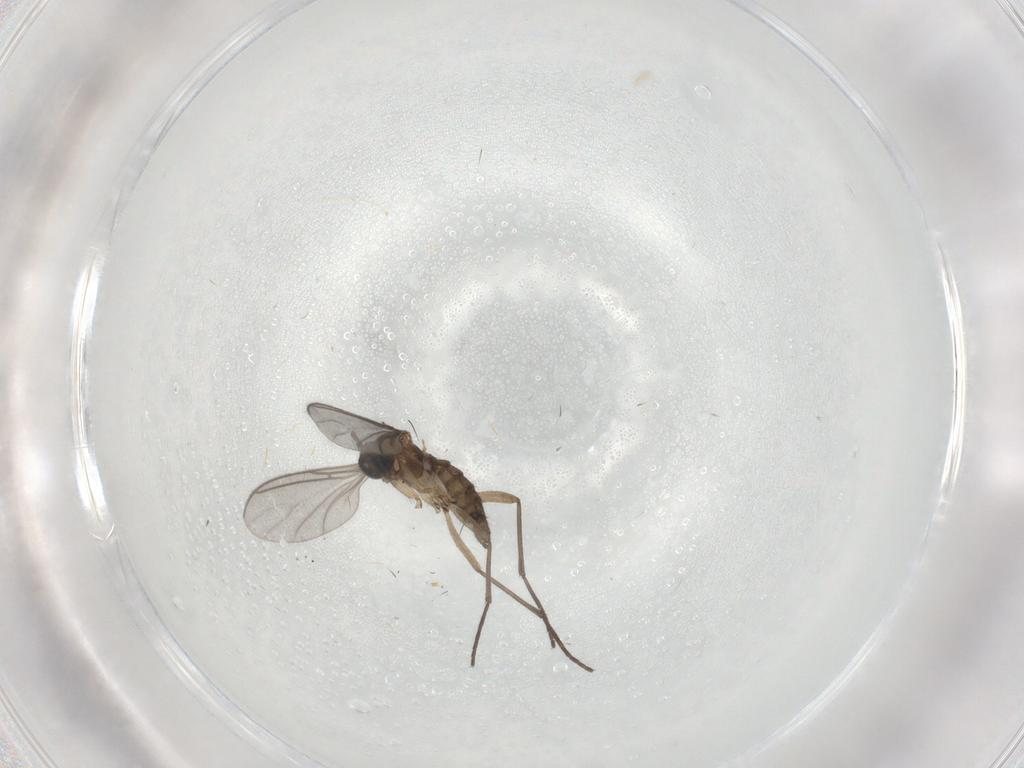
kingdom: Animalia
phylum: Arthropoda
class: Insecta
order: Diptera
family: Sciaridae
